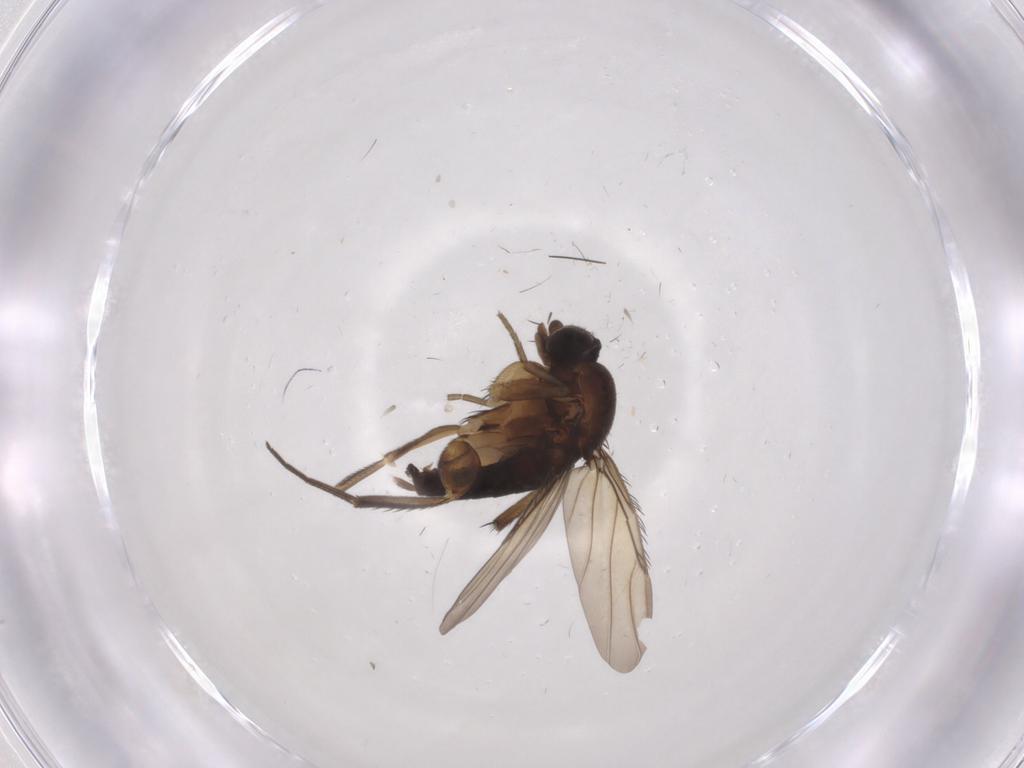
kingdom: Animalia
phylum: Arthropoda
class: Insecta
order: Diptera
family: Phoridae
